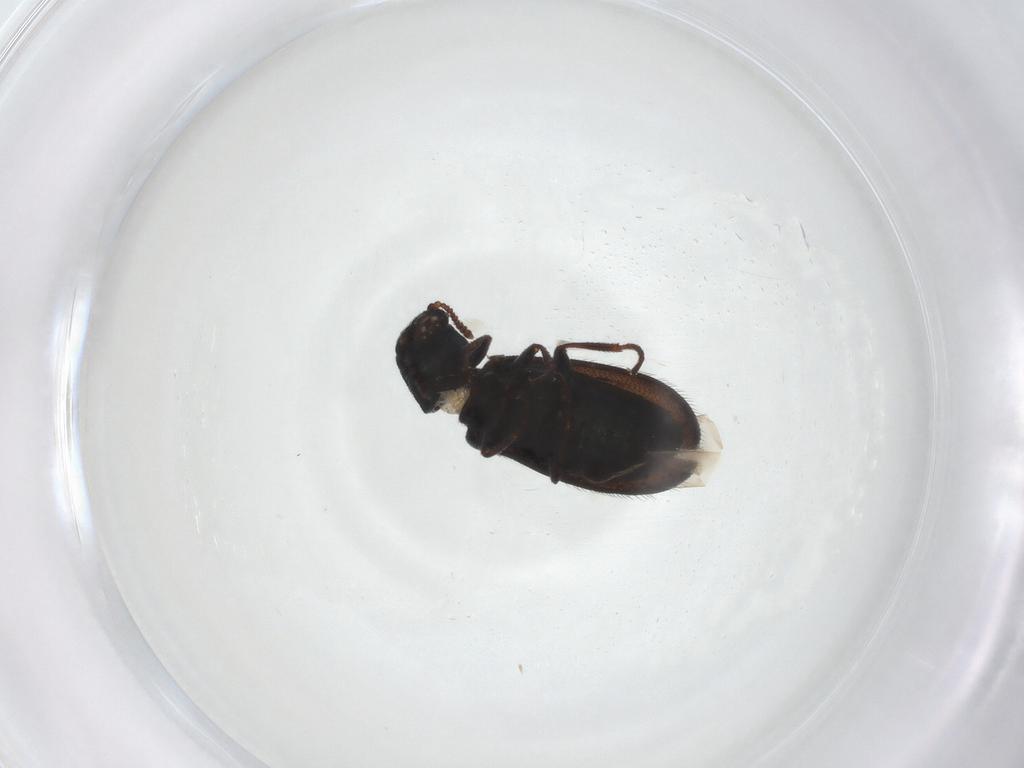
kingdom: Animalia
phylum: Arthropoda
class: Insecta
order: Coleoptera
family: Melyridae
